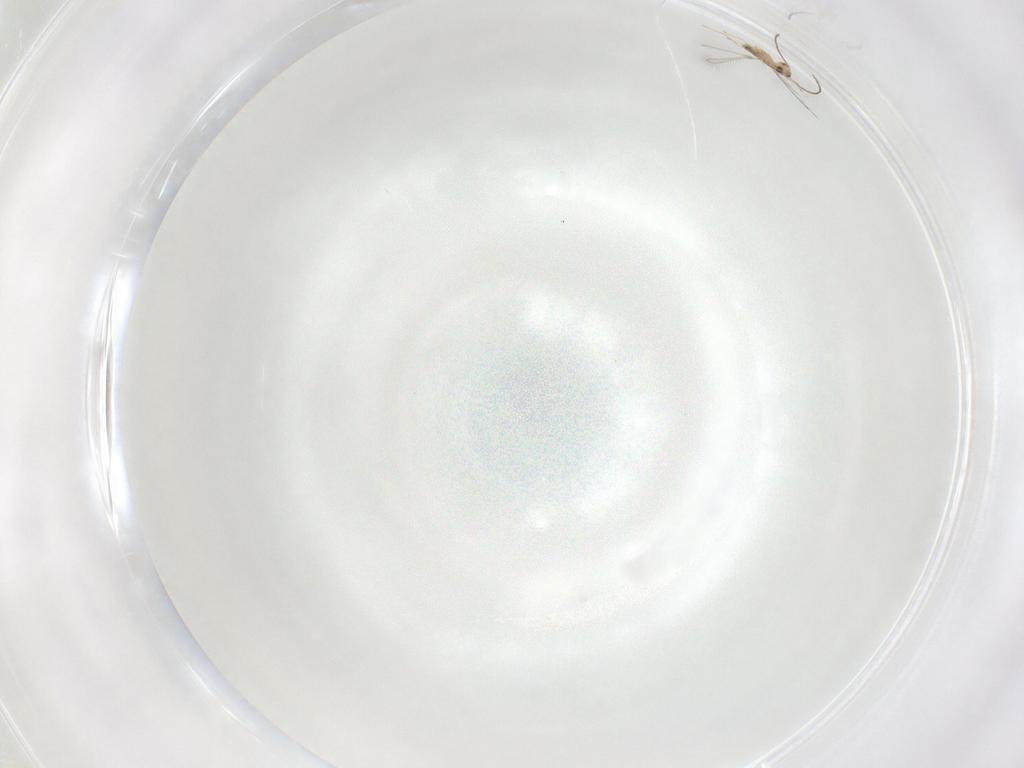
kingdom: Animalia
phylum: Arthropoda
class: Insecta
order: Hymenoptera
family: Mymaridae
